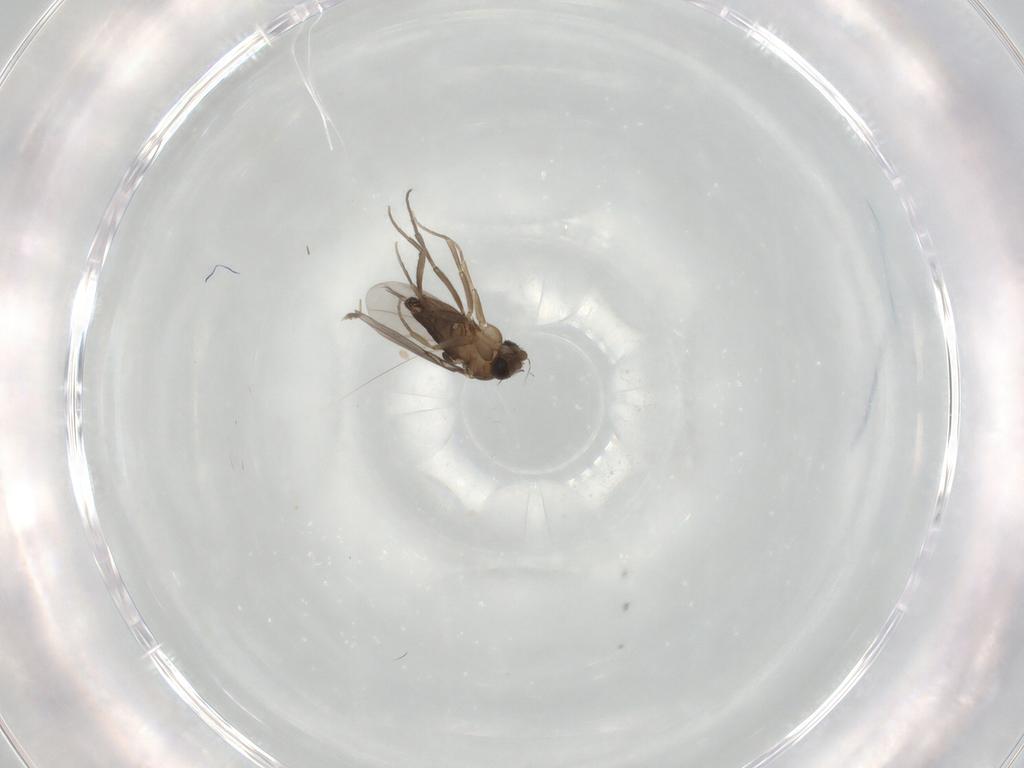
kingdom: Animalia
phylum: Arthropoda
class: Insecta
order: Diptera
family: Phoridae
